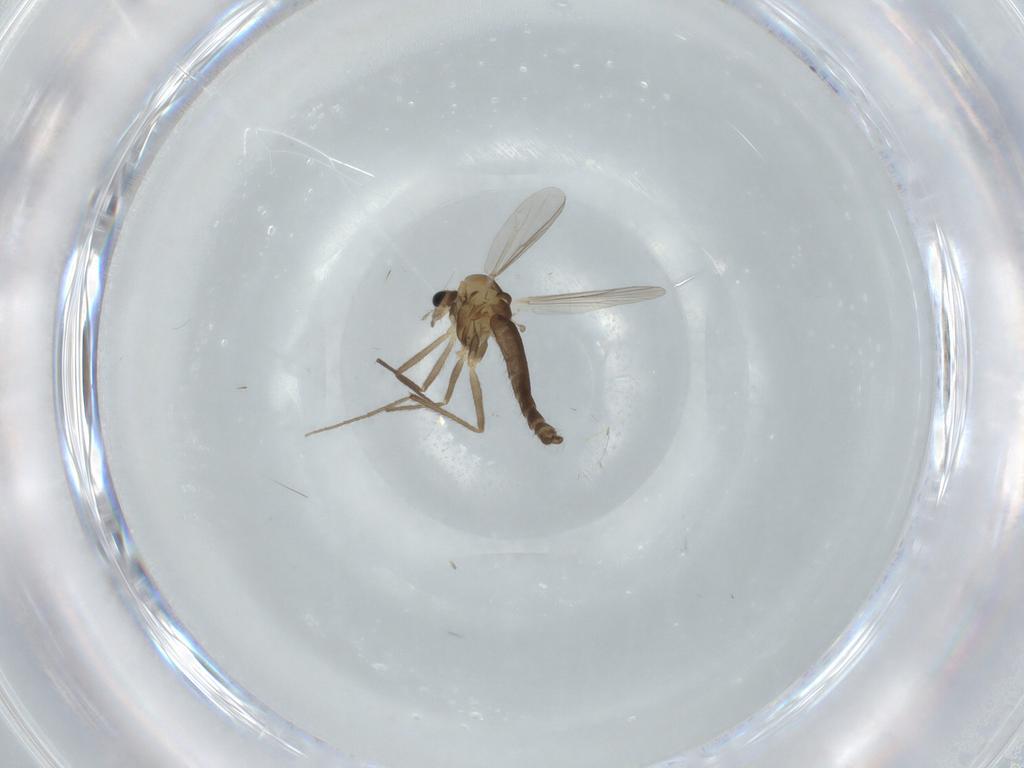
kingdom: Animalia
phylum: Arthropoda
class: Insecta
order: Diptera
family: Chironomidae
